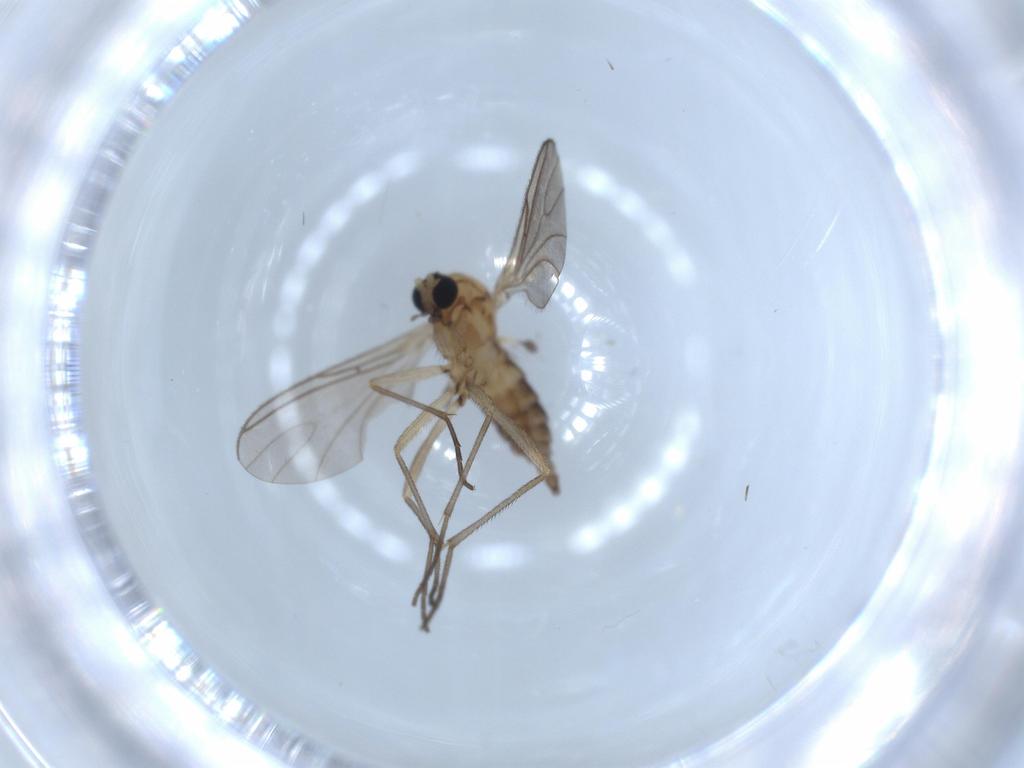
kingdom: Animalia
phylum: Arthropoda
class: Insecta
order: Diptera
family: Sciaridae
